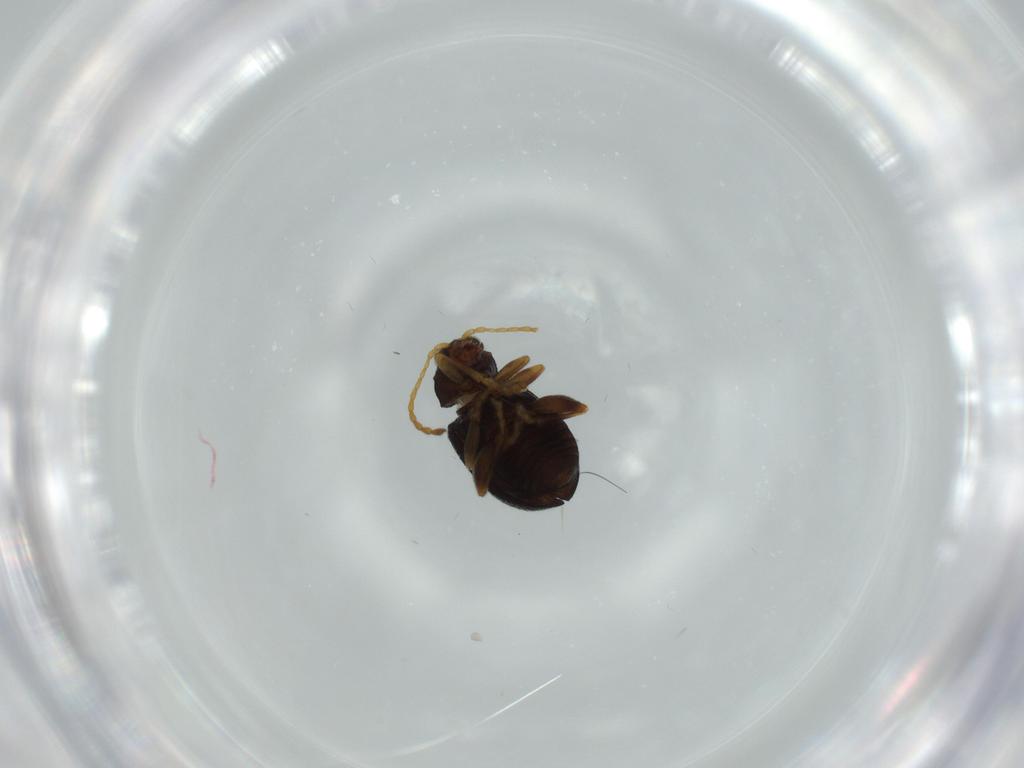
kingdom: Animalia
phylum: Arthropoda
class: Insecta
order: Coleoptera
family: Chrysomelidae
